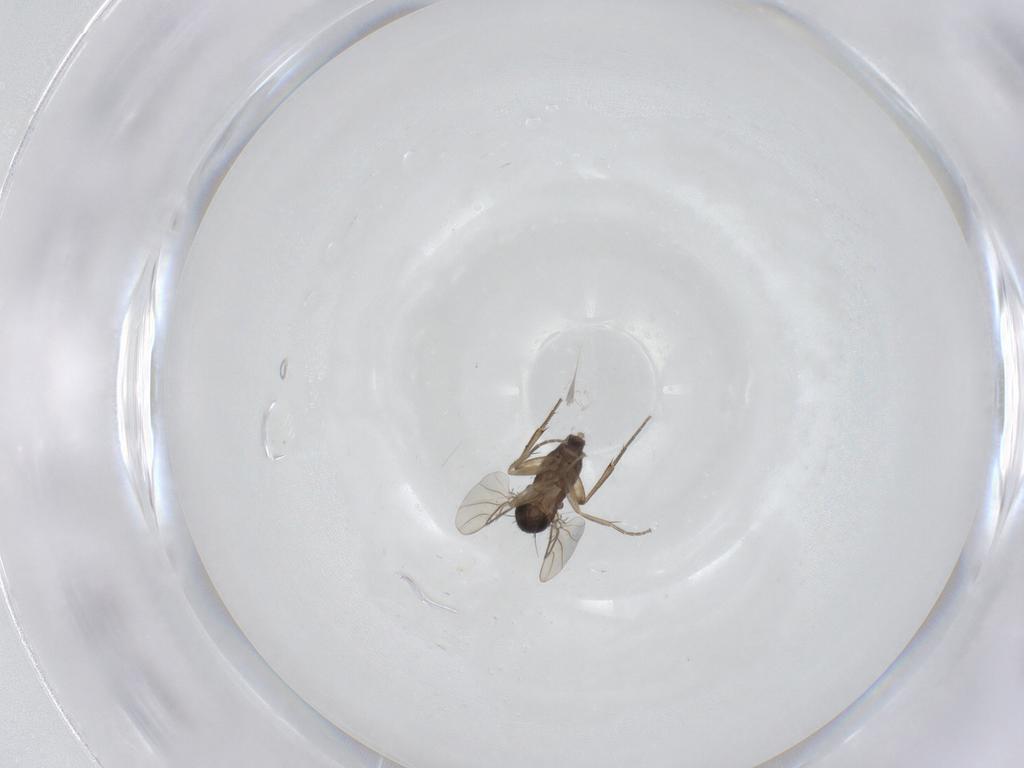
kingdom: Animalia
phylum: Arthropoda
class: Insecta
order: Diptera
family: Phoridae
